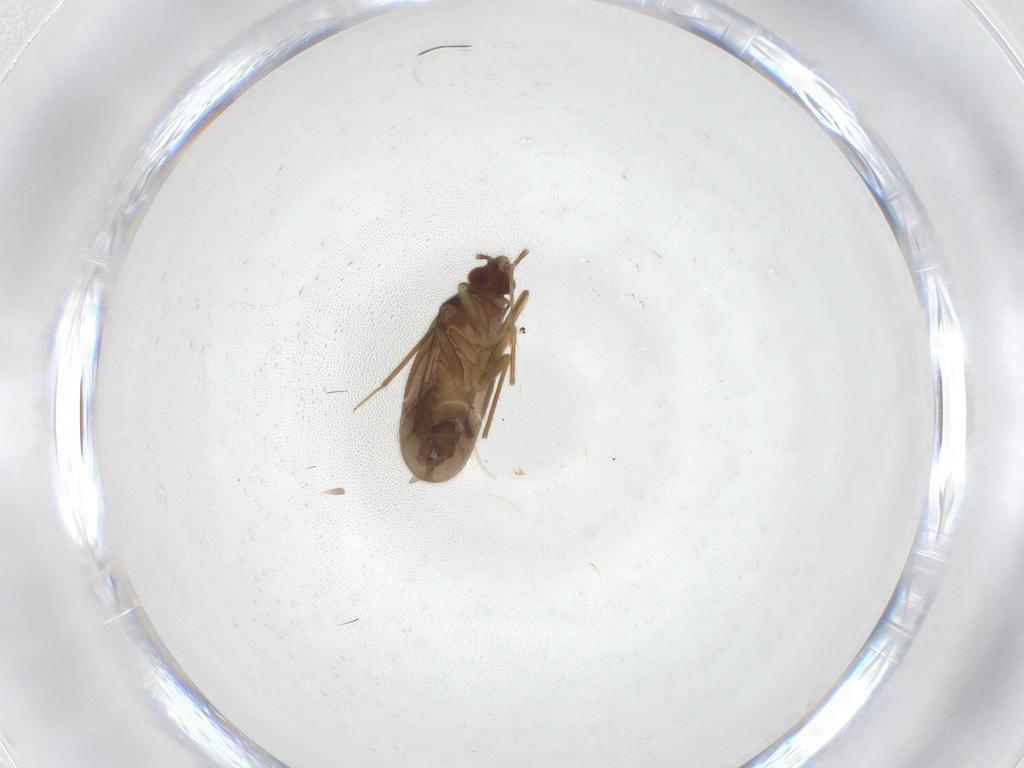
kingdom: Animalia
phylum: Arthropoda
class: Insecta
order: Hemiptera
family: Ceratocombidae
